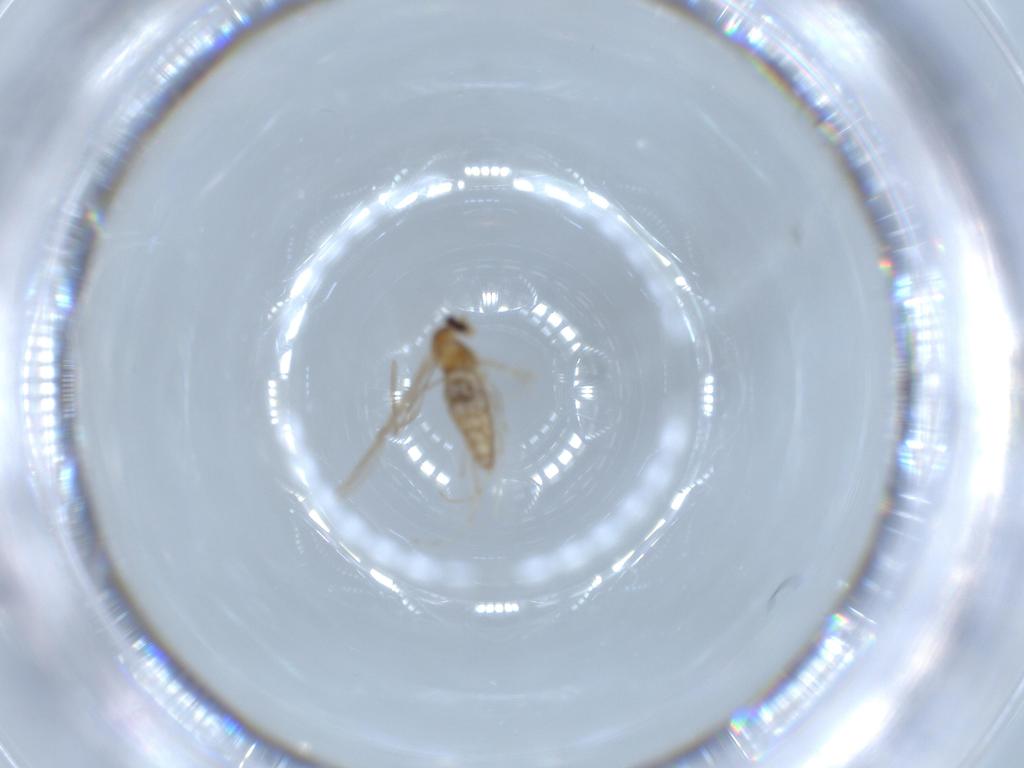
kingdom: Animalia
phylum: Arthropoda
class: Insecta
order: Diptera
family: Cecidomyiidae
